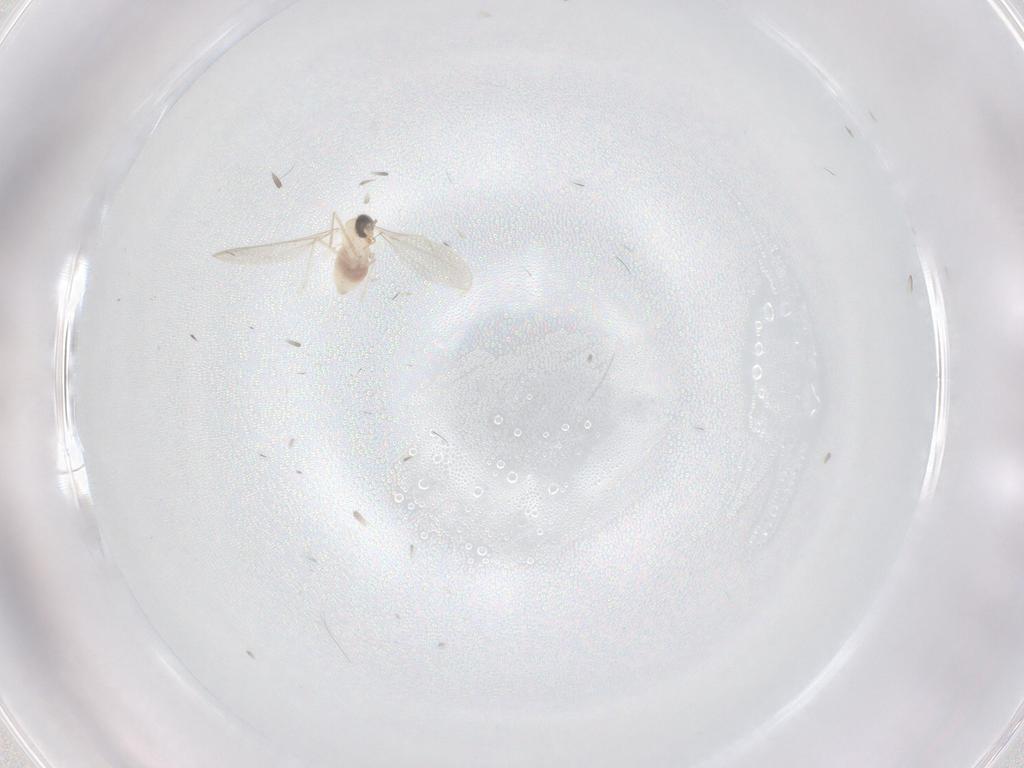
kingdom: Animalia
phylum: Arthropoda
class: Insecta
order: Diptera
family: Cecidomyiidae
